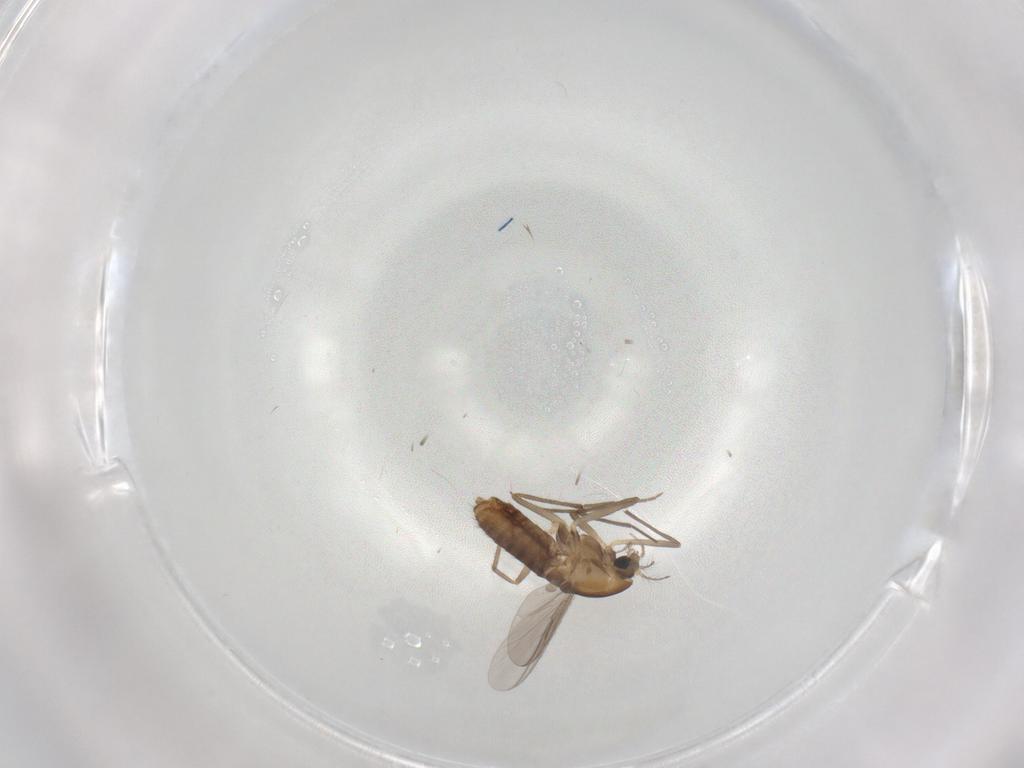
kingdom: Animalia
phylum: Arthropoda
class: Insecta
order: Diptera
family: Chironomidae
